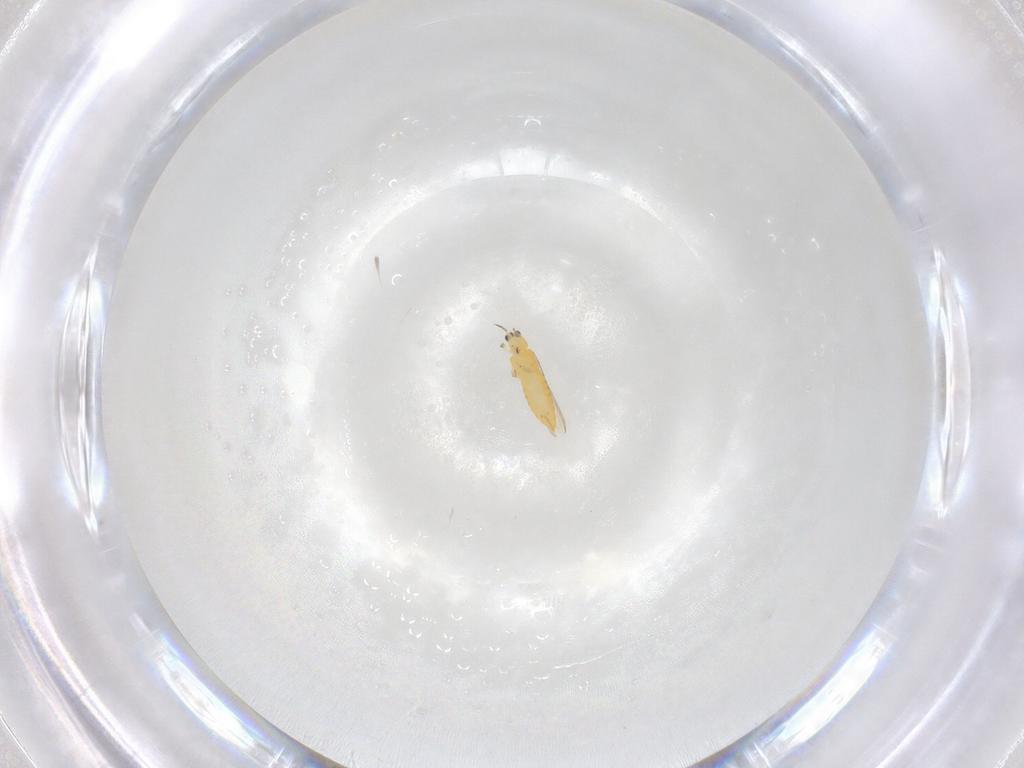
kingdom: Animalia
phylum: Arthropoda
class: Insecta
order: Thysanoptera
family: Thripidae
